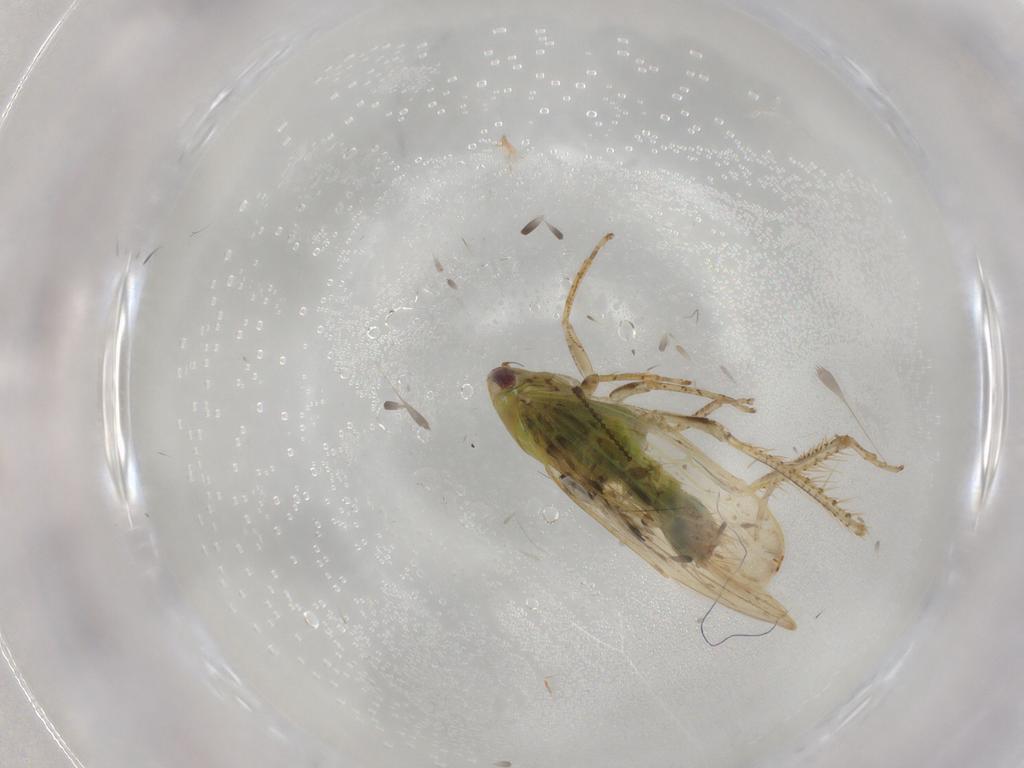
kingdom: Animalia
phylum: Arthropoda
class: Insecta
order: Hemiptera
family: Cicadellidae
